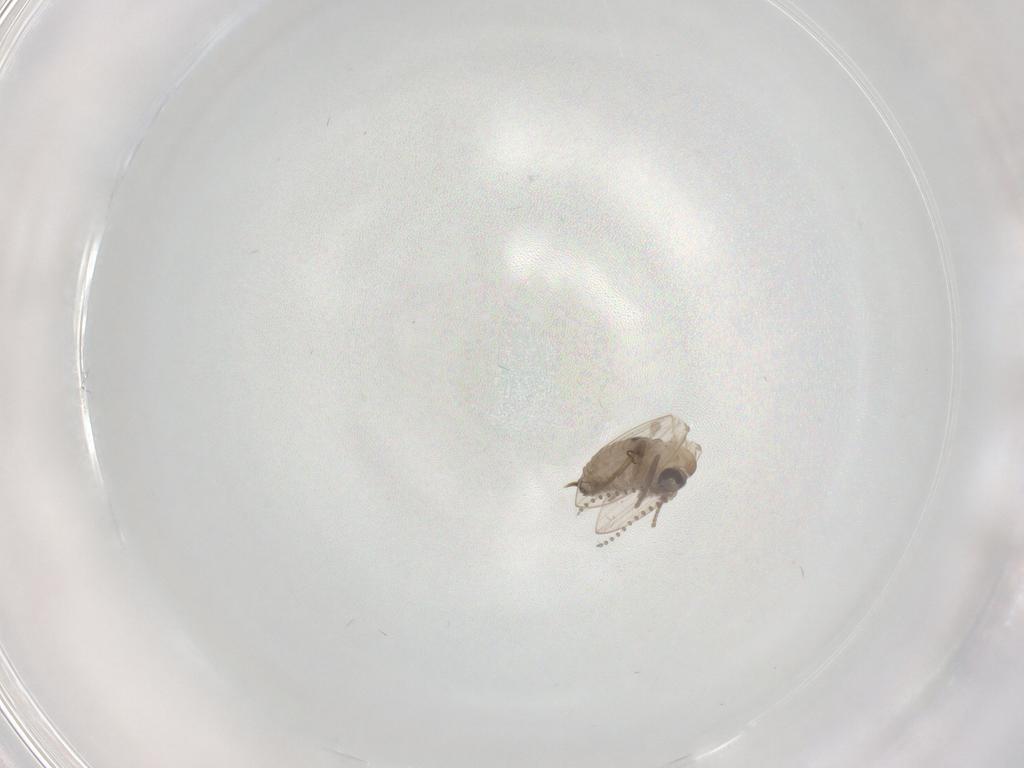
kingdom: Animalia
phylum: Arthropoda
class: Insecta
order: Diptera
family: Psychodidae
